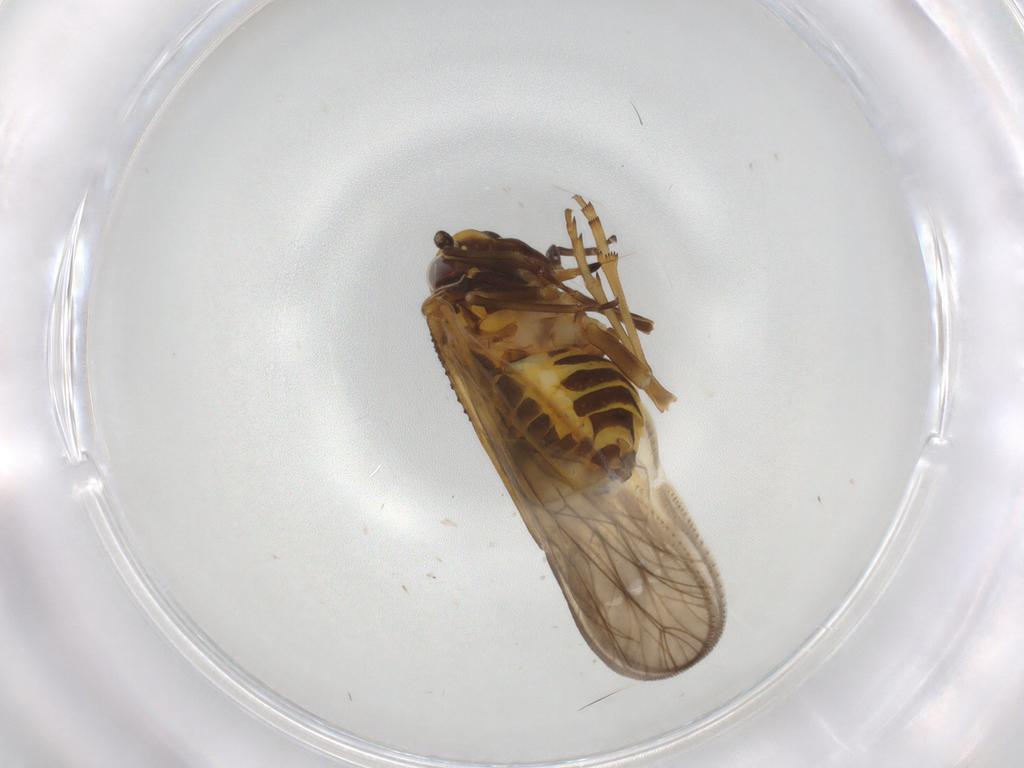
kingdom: Animalia
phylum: Arthropoda
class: Insecta
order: Hemiptera
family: Meenoplidae
